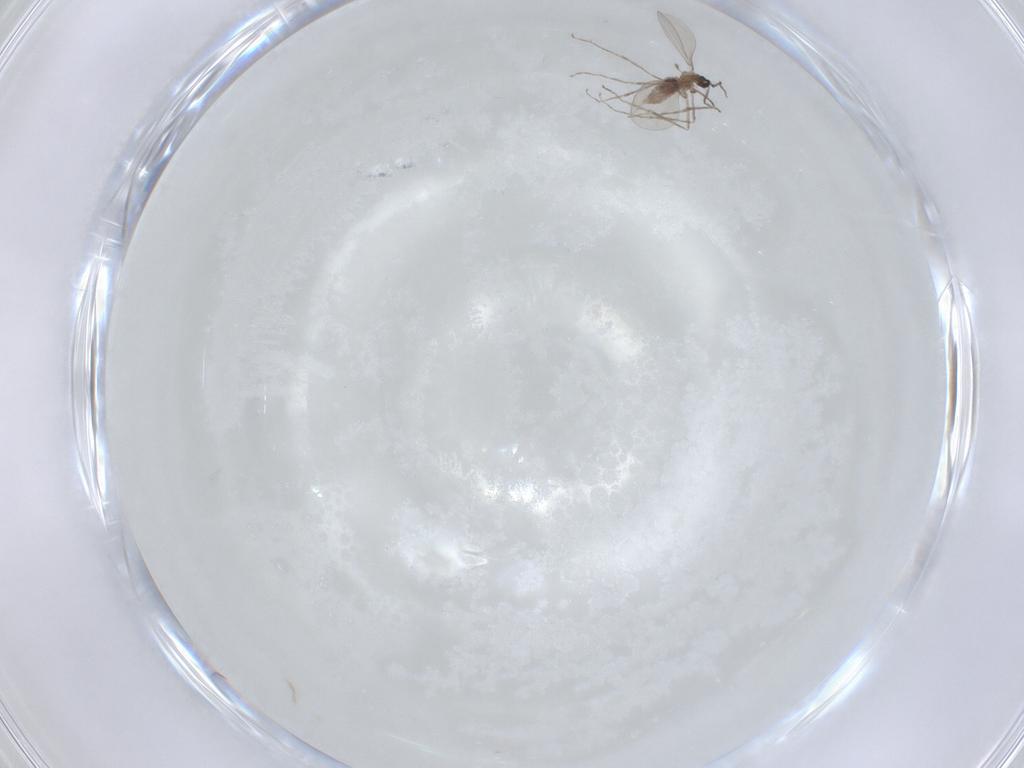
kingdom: Animalia
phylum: Arthropoda
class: Insecta
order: Diptera
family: Cecidomyiidae
